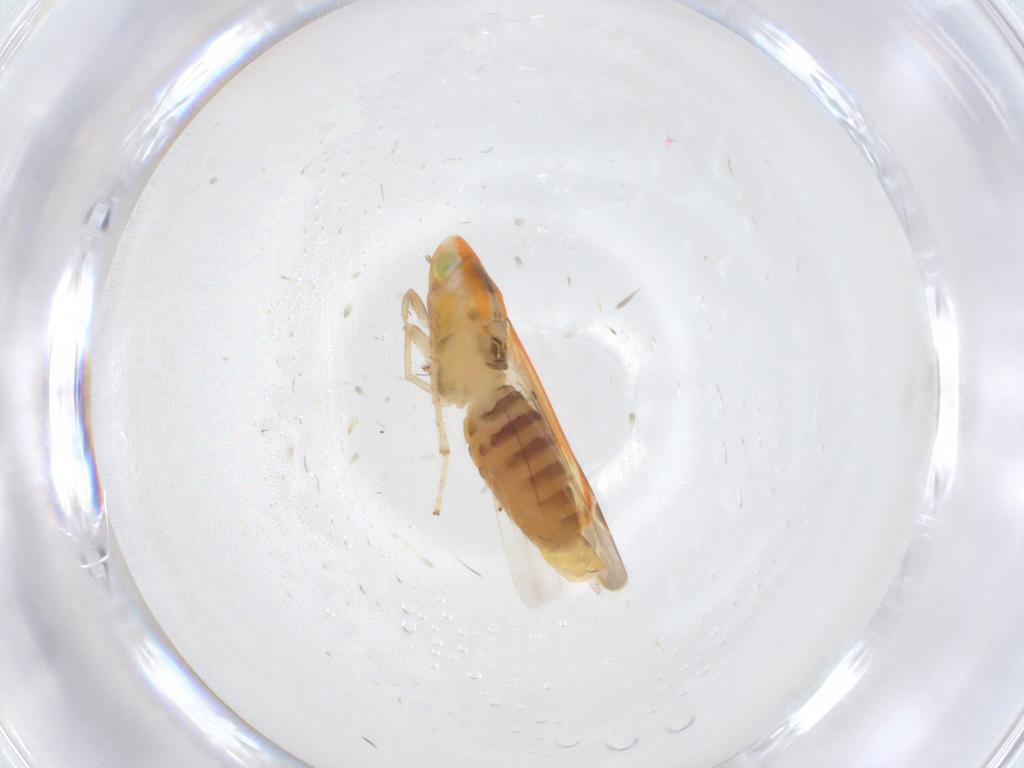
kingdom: Animalia
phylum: Arthropoda
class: Insecta
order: Hemiptera
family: Cicadellidae
